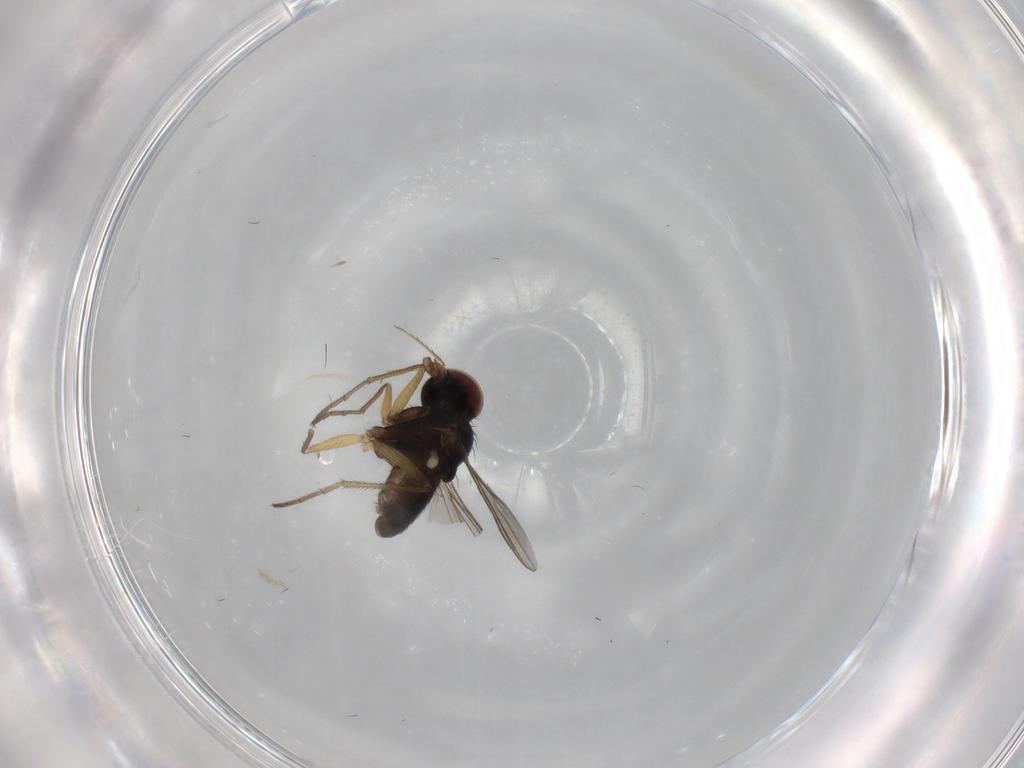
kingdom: Animalia
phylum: Arthropoda
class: Insecta
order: Diptera
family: Dolichopodidae
